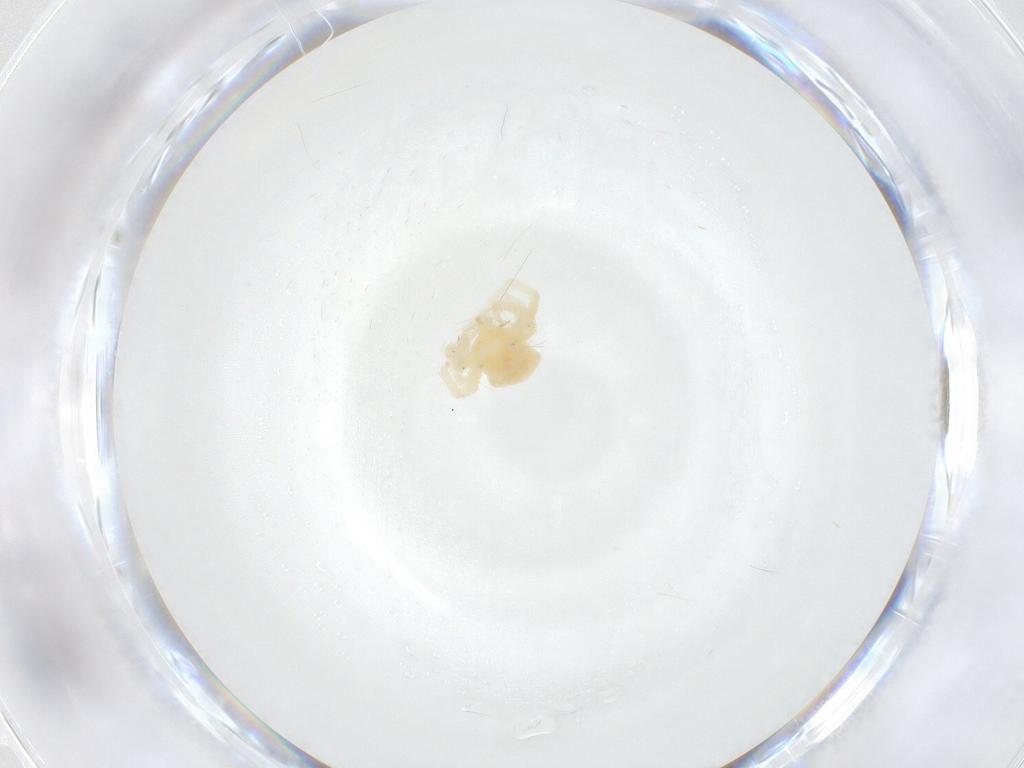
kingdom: Animalia
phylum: Arthropoda
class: Arachnida
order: Trombidiformes
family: Anystidae
